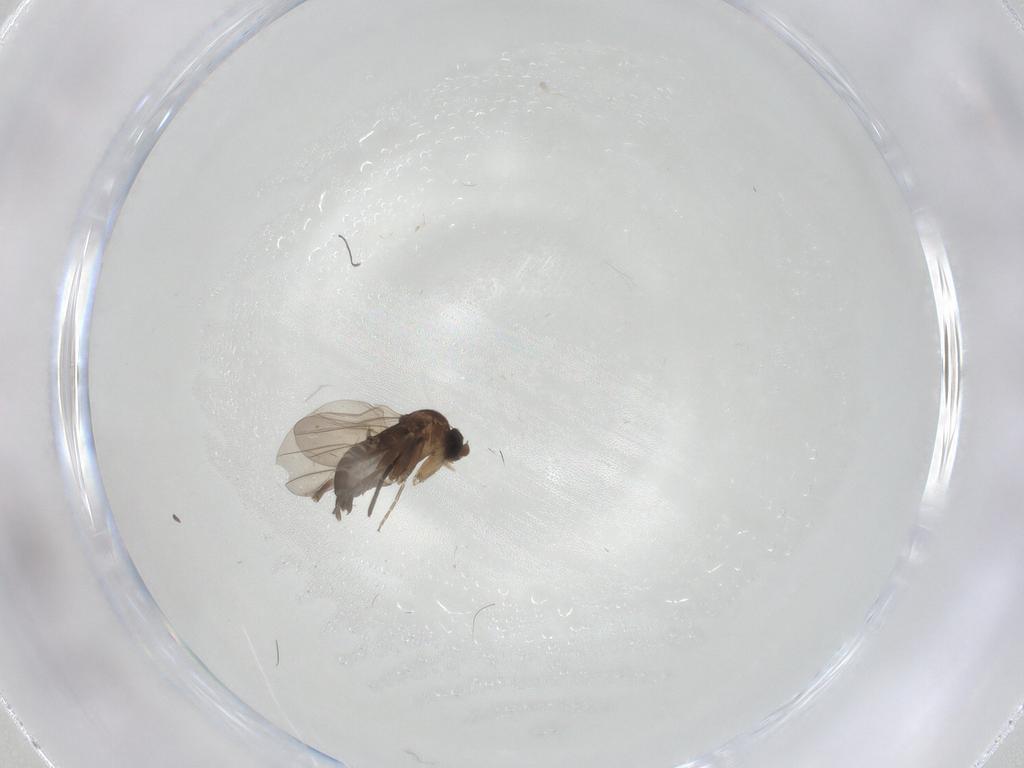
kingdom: Animalia
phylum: Arthropoda
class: Insecta
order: Diptera
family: Phoridae
